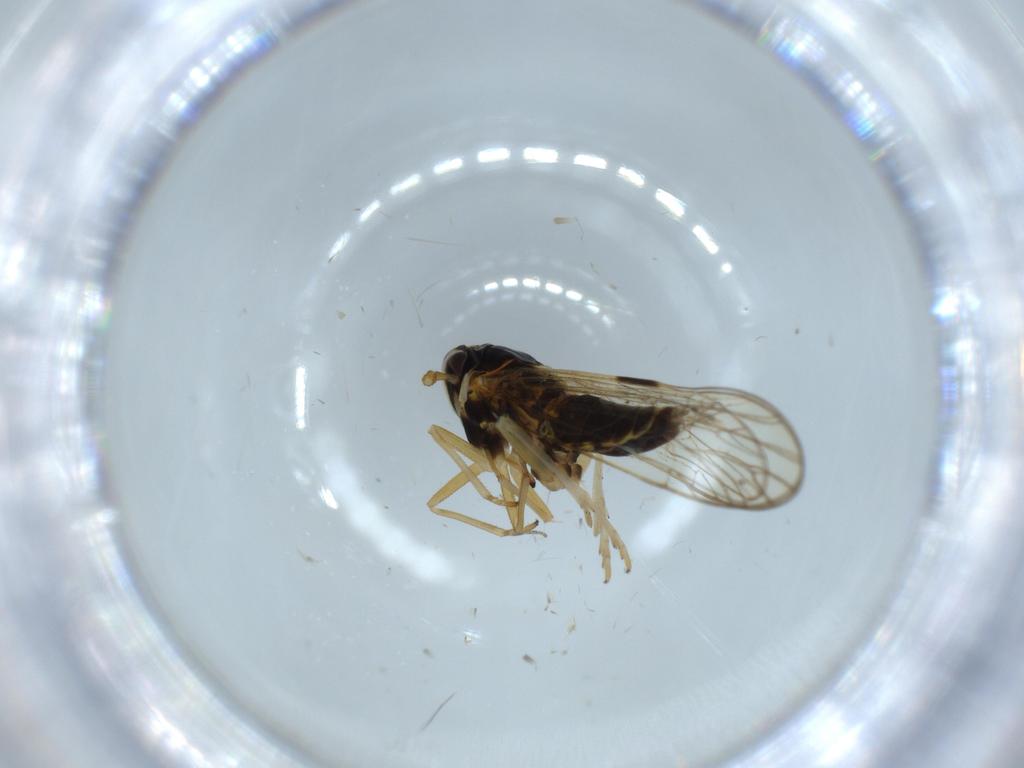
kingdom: Animalia
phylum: Arthropoda
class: Insecta
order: Diptera
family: Phoridae
